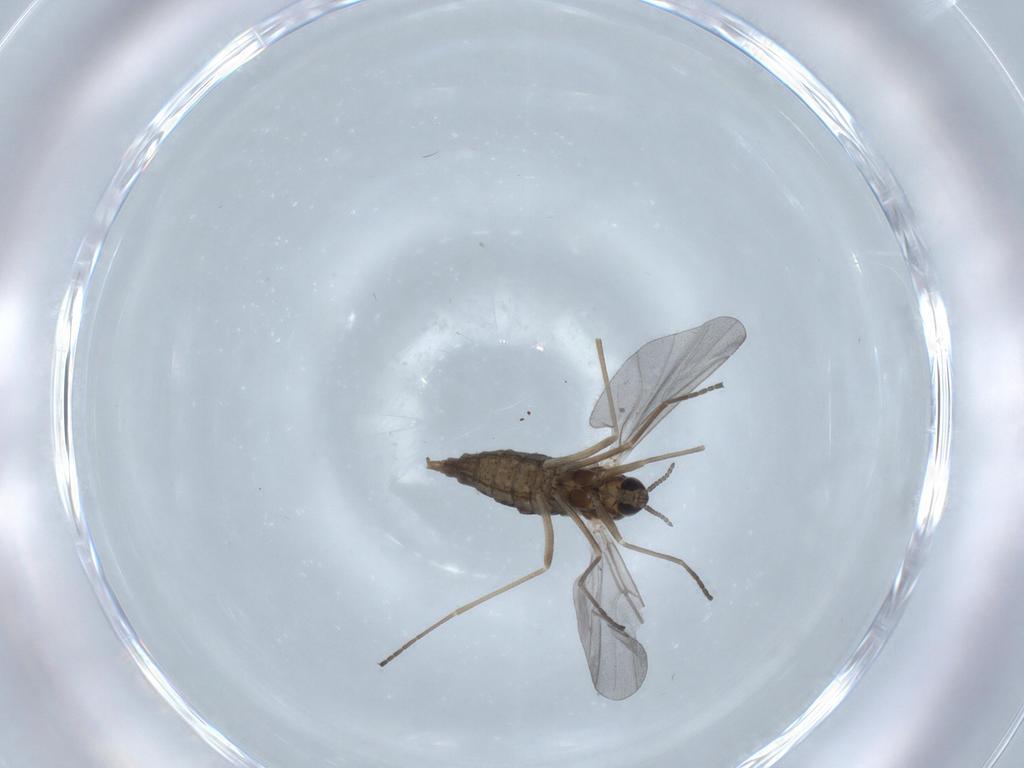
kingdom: Animalia
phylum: Arthropoda
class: Insecta
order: Diptera
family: Cecidomyiidae
